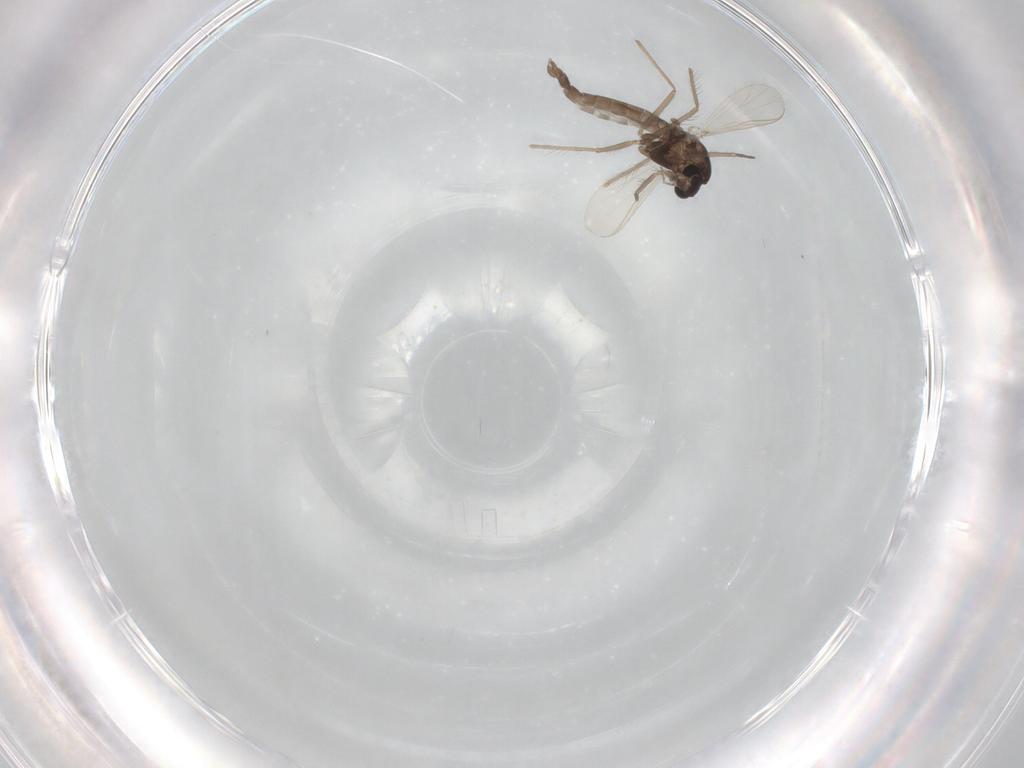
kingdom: Animalia
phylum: Arthropoda
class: Insecta
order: Diptera
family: Chironomidae
